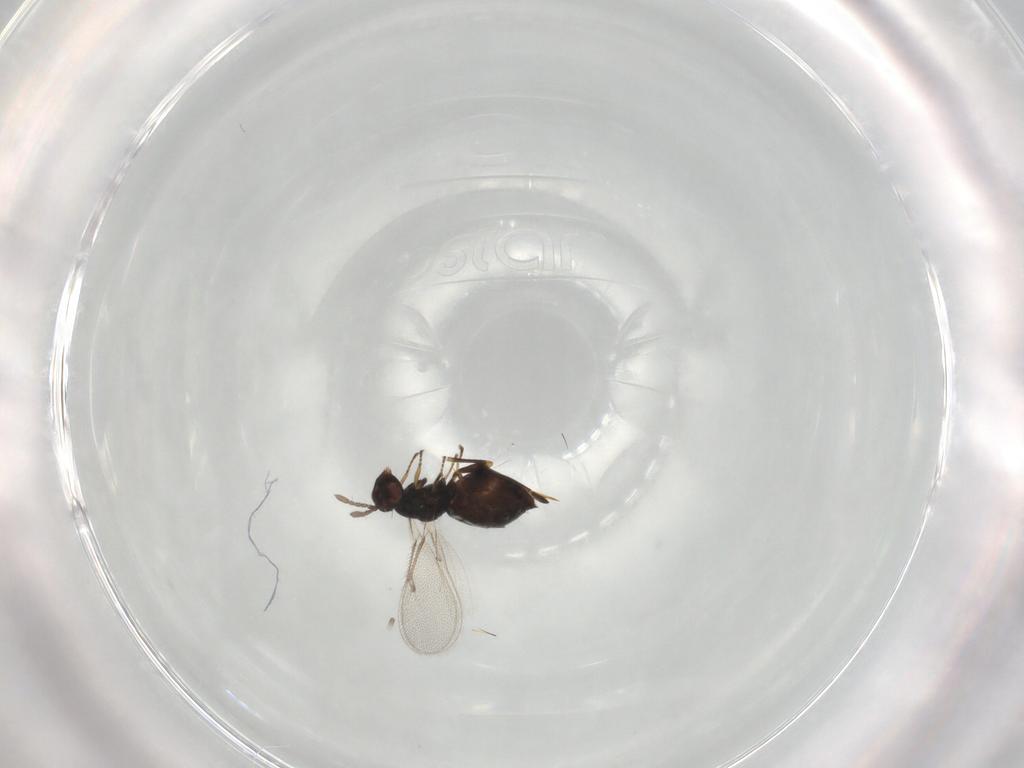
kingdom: Animalia
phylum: Arthropoda
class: Insecta
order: Hymenoptera
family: Eulophidae
